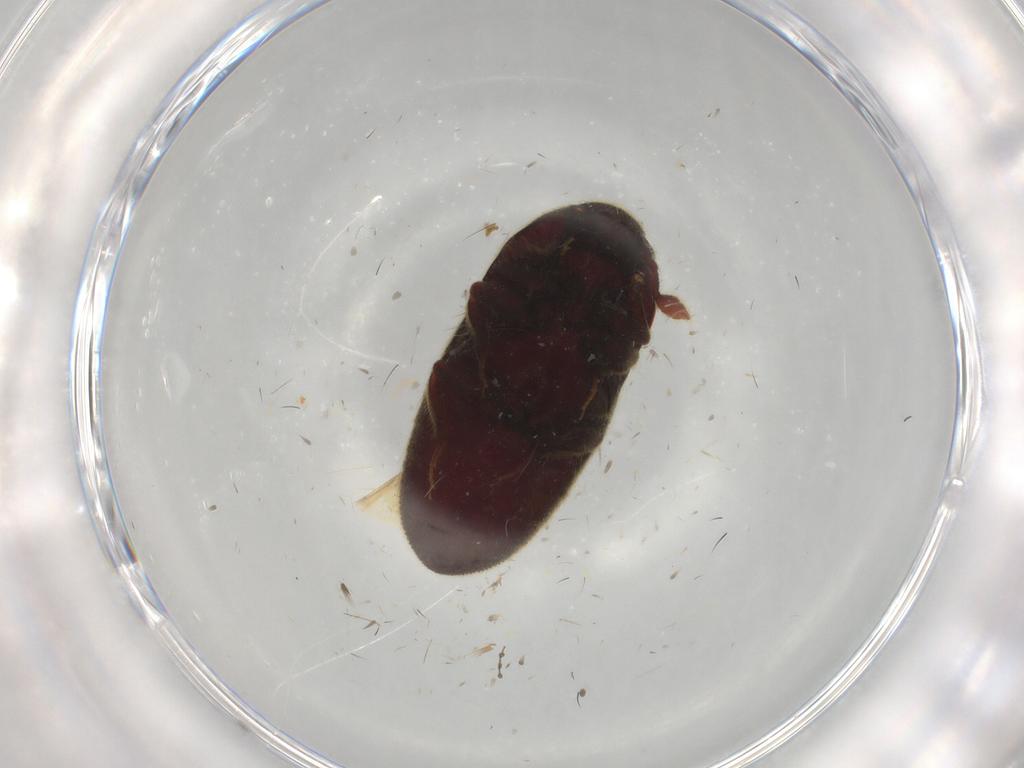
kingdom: Animalia
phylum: Arthropoda
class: Insecta
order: Coleoptera
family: Throscidae
